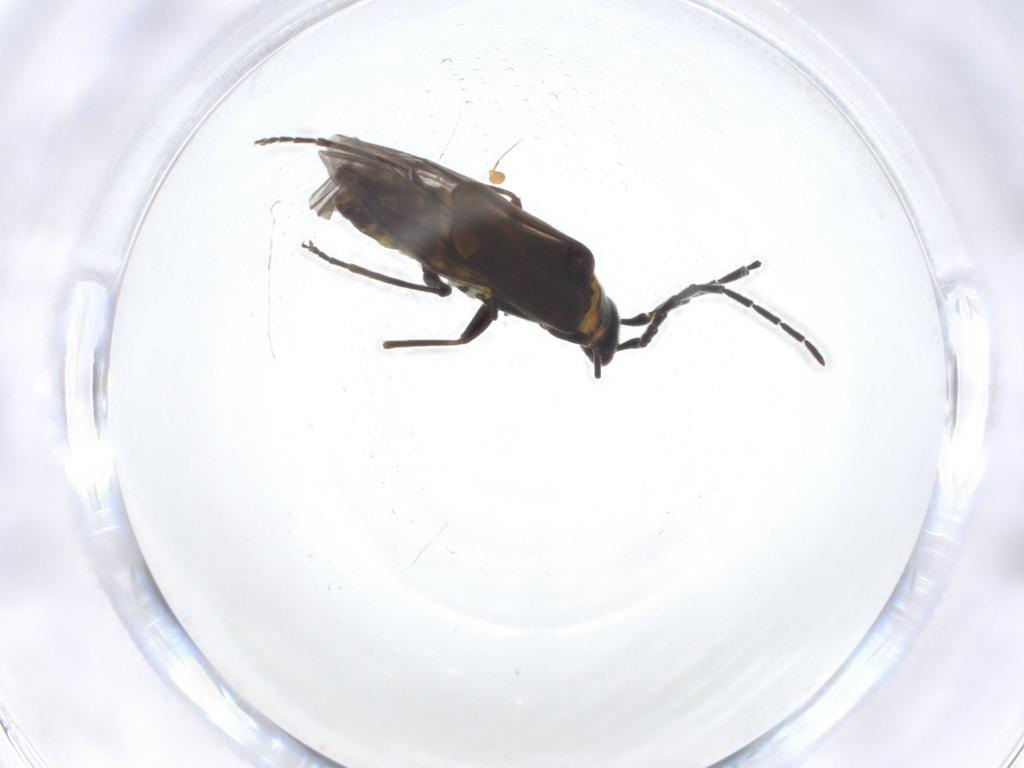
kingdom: Animalia
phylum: Arthropoda
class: Insecta
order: Coleoptera
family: Cantharidae
